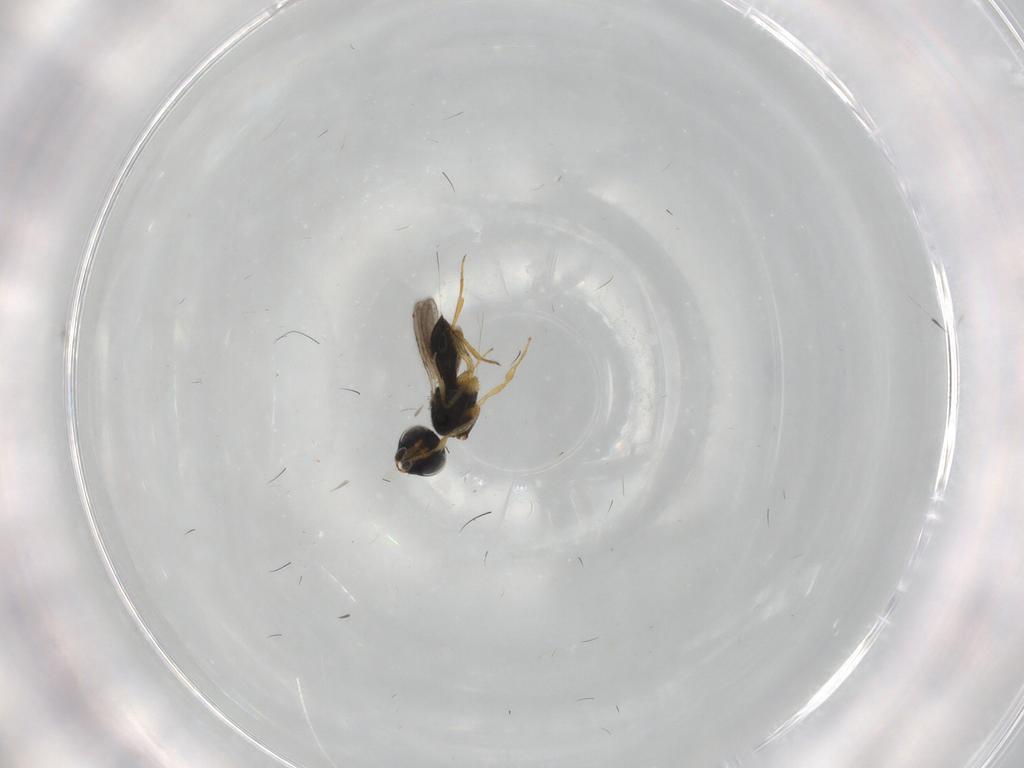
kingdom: Animalia
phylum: Arthropoda
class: Insecta
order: Hymenoptera
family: Scelionidae
